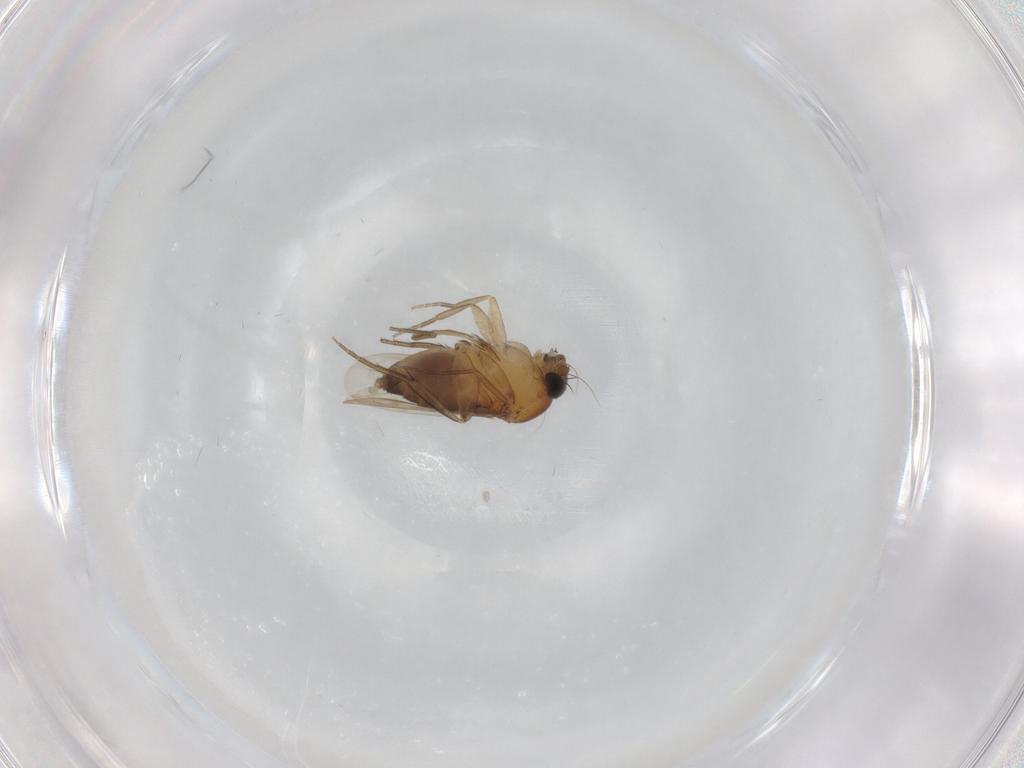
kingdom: Animalia
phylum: Arthropoda
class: Insecta
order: Diptera
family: Phoridae
